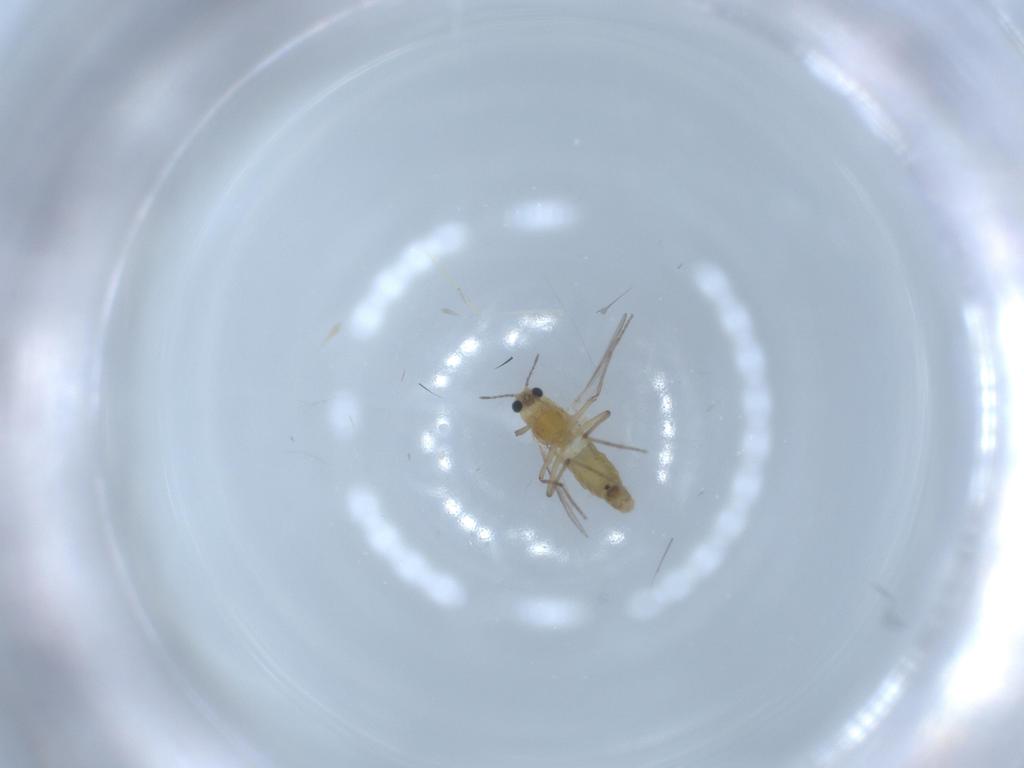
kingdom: Animalia
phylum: Arthropoda
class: Insecta
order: Diptera
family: Chironomidae
